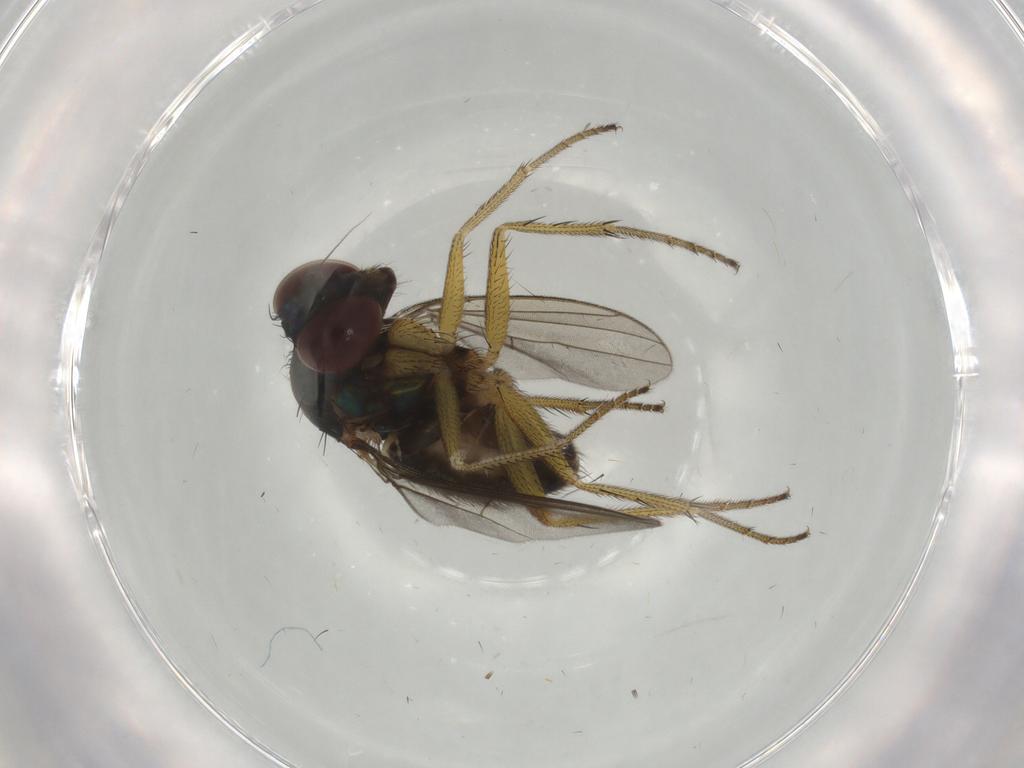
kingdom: Animalia
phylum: Arthropoda
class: Insecta
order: Diptera
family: Dolichopodidae
